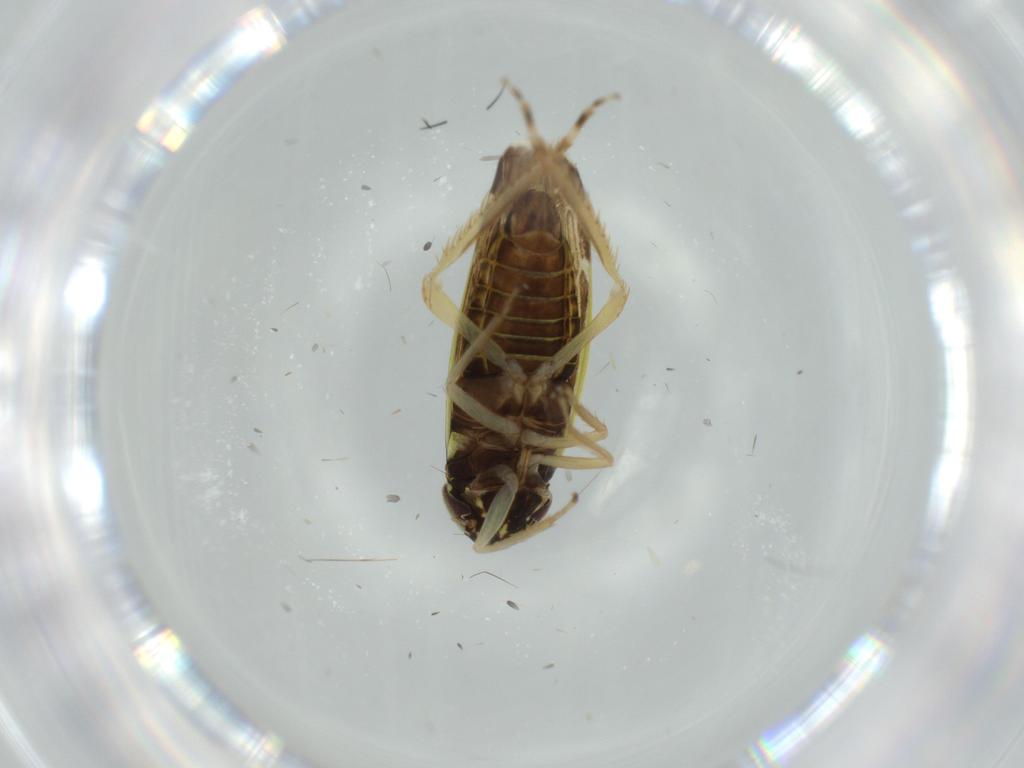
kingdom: Animalia
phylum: Arthropoda
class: Insecta
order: Hemiptera
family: Cicadellidae
